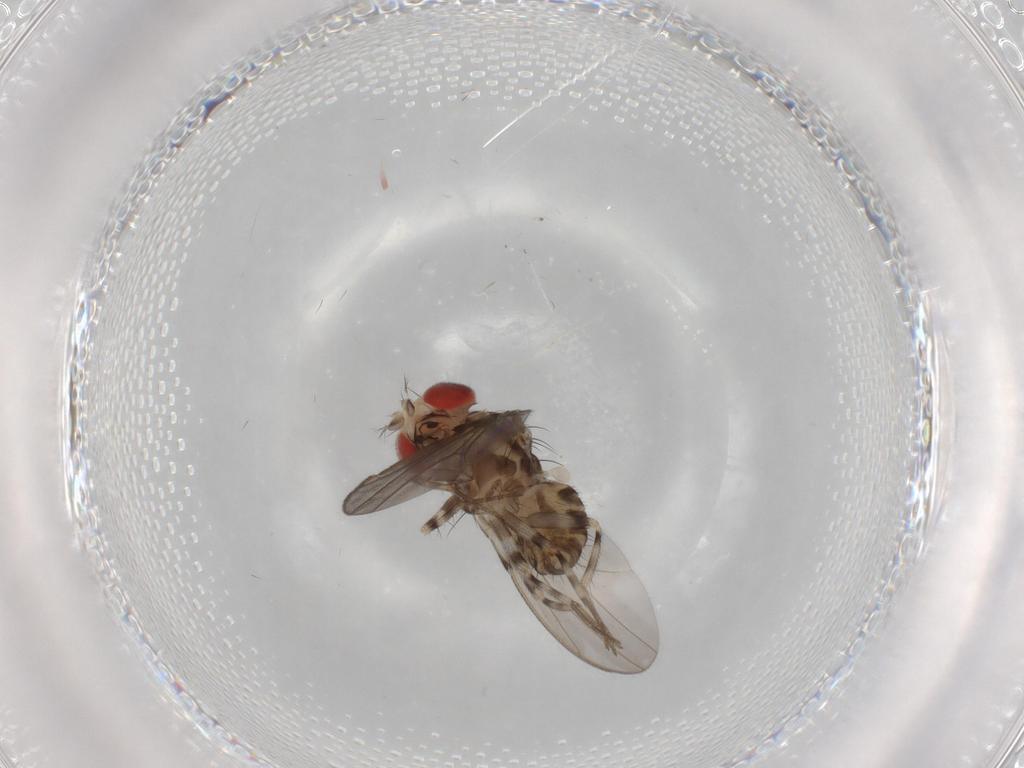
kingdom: Animalia
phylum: Arthropoda
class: Insecta
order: Diptera
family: Drosophilidae
